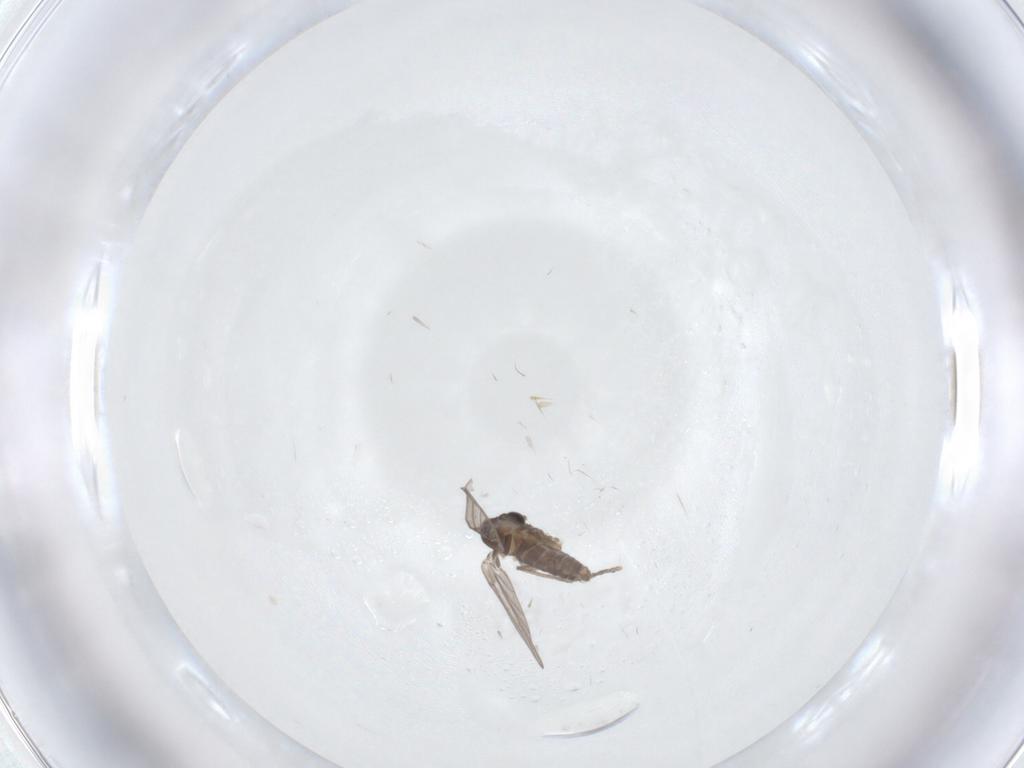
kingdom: Animalia
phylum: Arthropoda
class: Insecta
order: Diptera
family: Psychodidae
